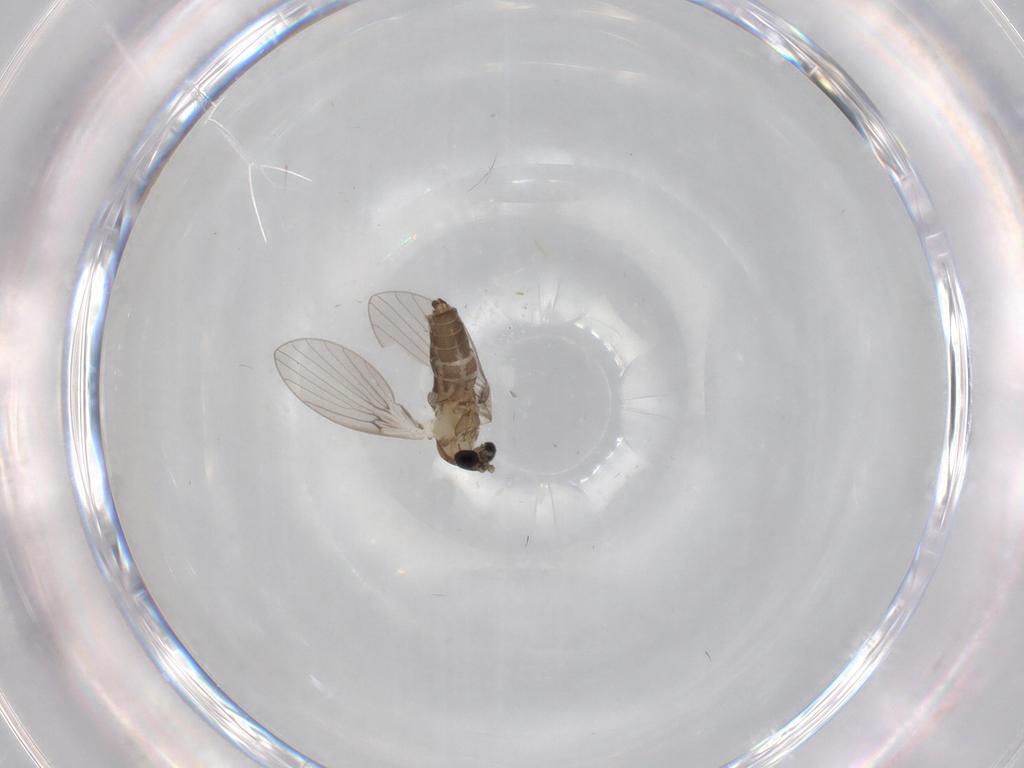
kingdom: Animalia
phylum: Arthropoda
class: Insecta
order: Diptera
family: Psychodidae
